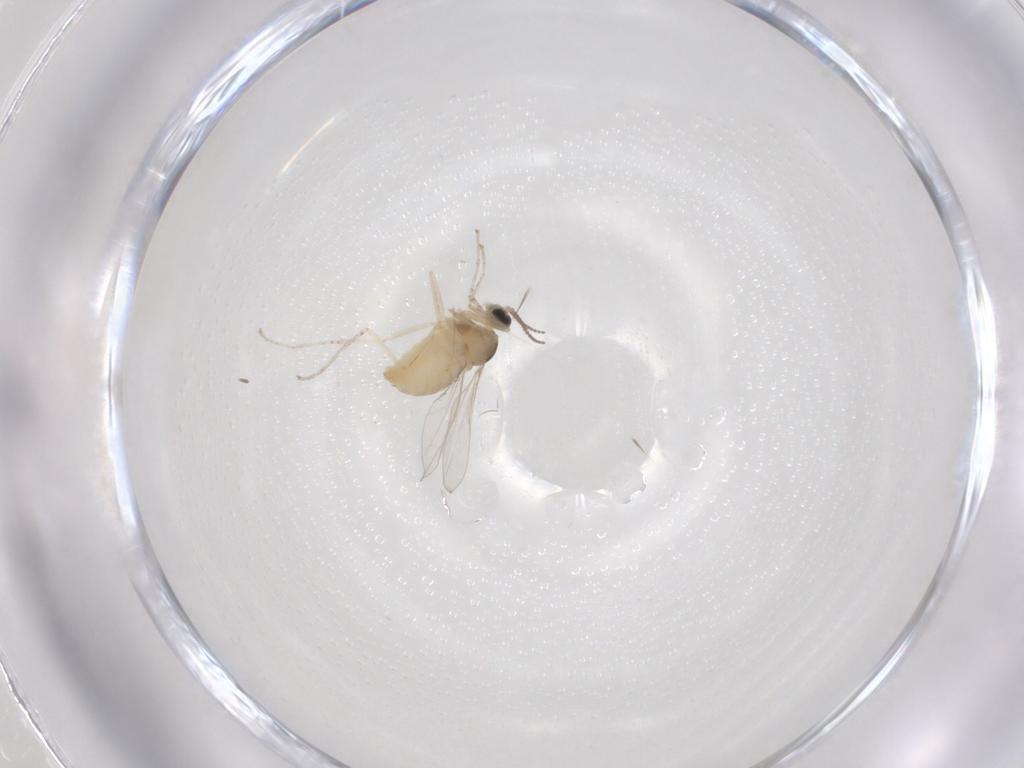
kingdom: Animalia
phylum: Arthropoda
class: Insecta
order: Diptera
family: Cecidomyiidae
